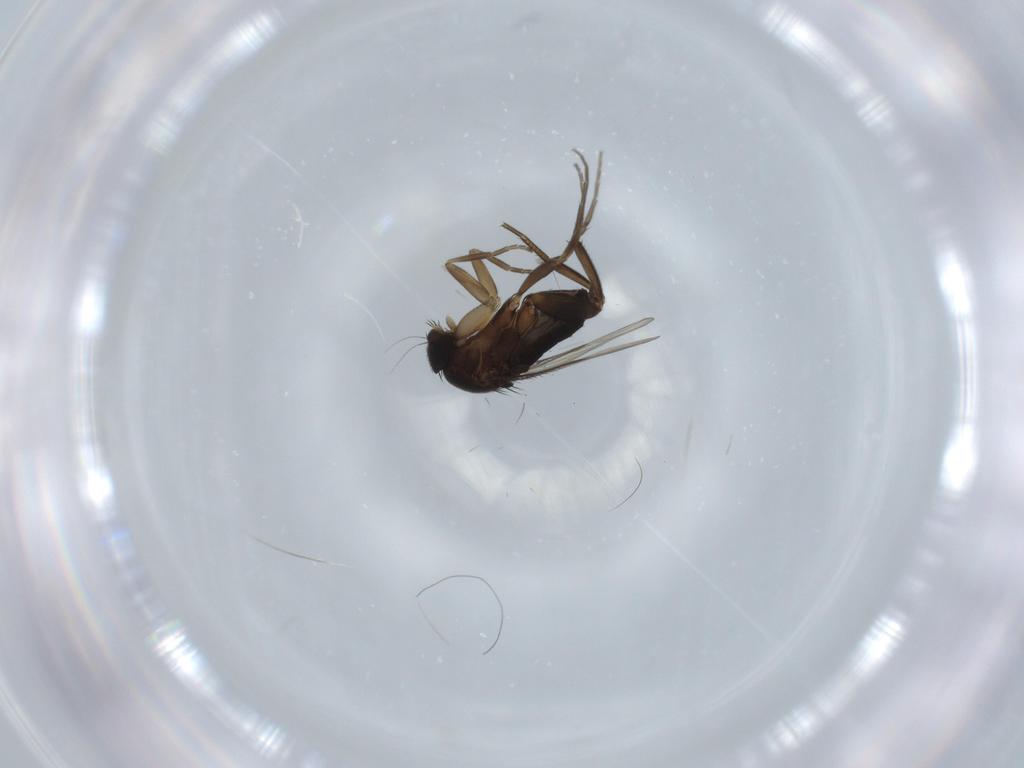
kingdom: Animalia
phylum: Arthropoda
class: Insecta
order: Diptera
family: Phoridae
